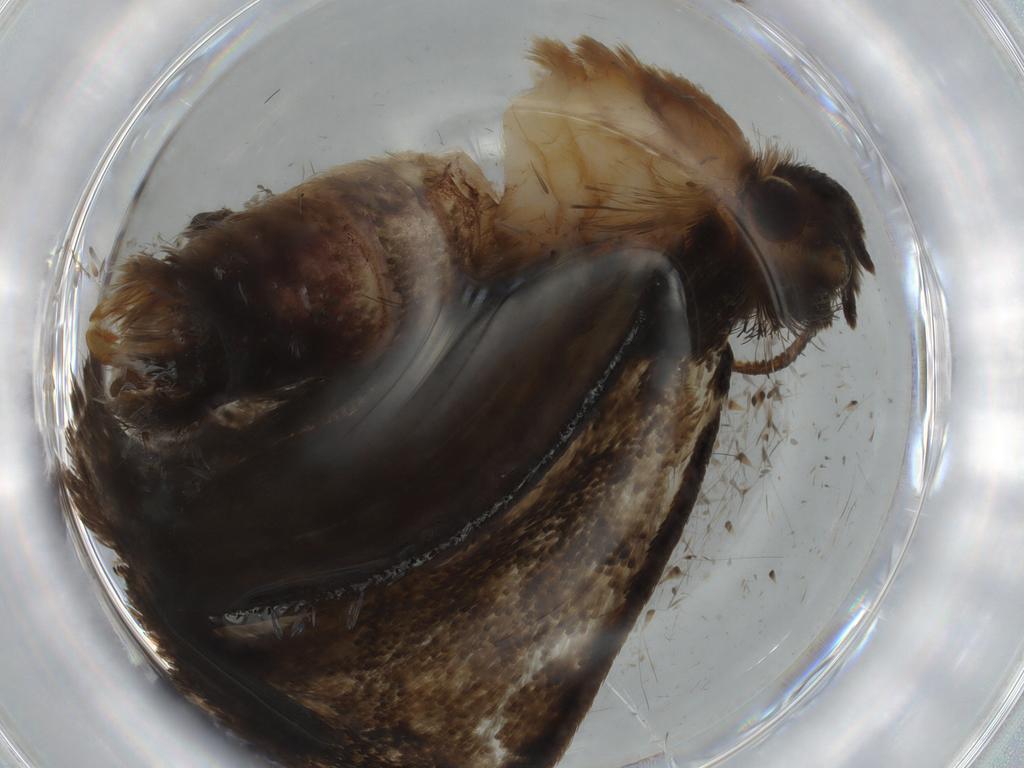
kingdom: Animalia
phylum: Arthropoda
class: Insecta
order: Lepidoptera
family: Tineidae
